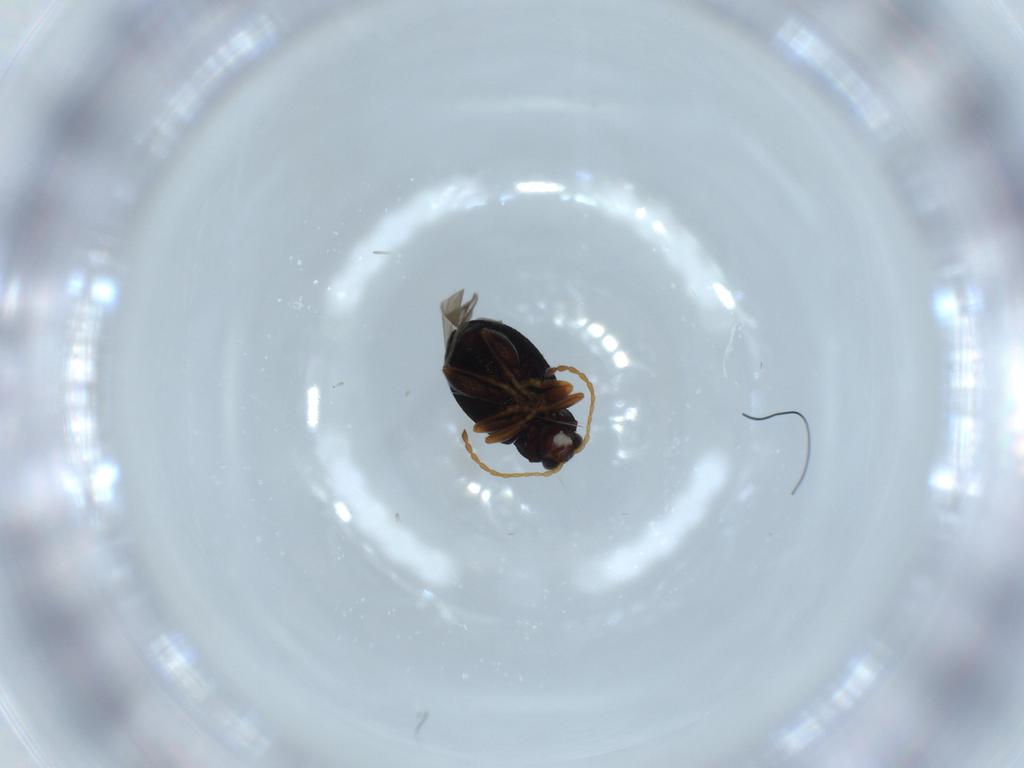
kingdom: Animalia
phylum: Arthropoda
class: Insecta
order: Coleoptera
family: Chrysomelidae
